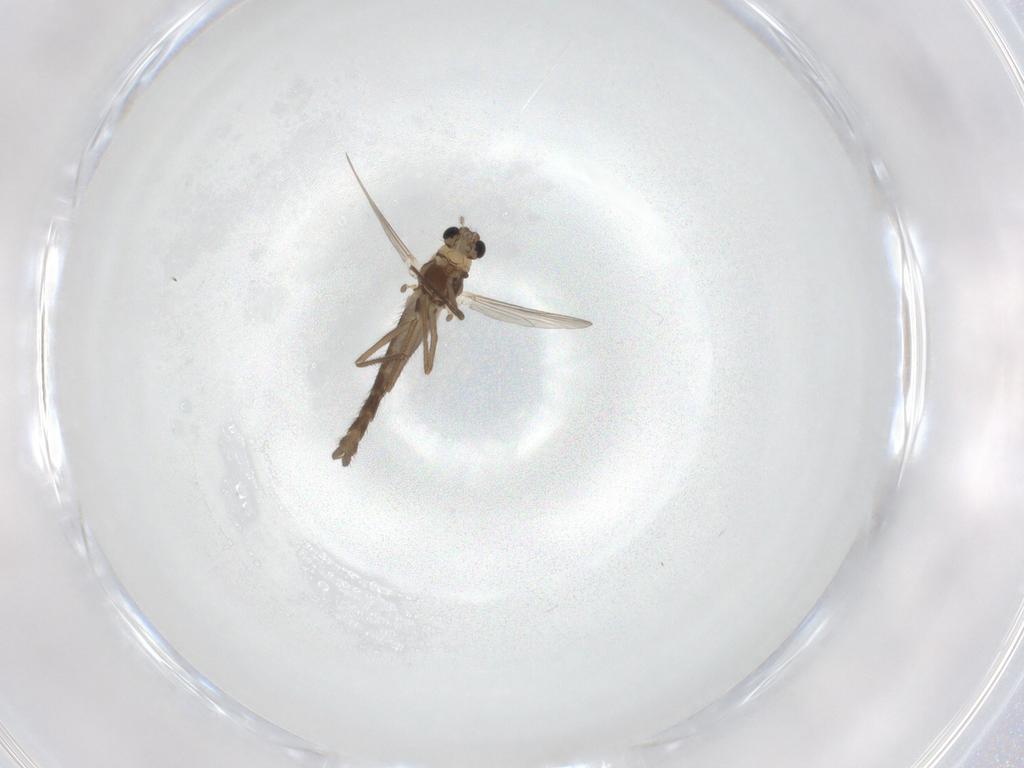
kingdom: Animalia
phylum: Arthropoda
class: Insecta
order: Diptera
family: Chironomidae
